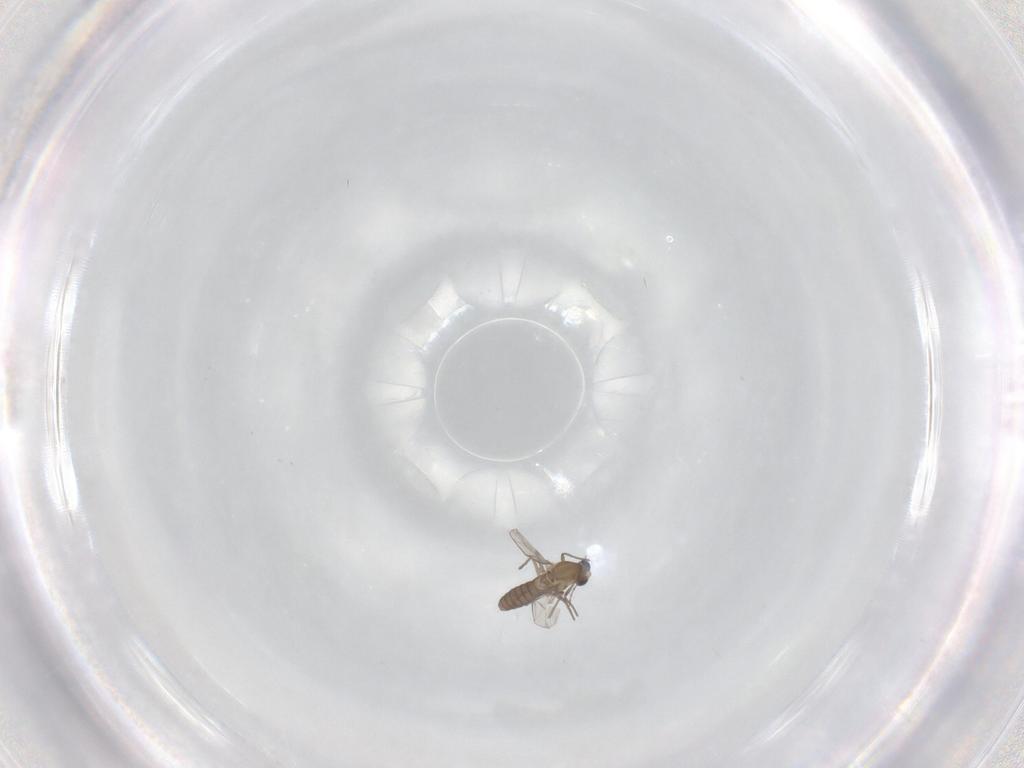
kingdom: Animalia
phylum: Arthropoda
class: Insecta
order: Diptera
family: Chironomidae
